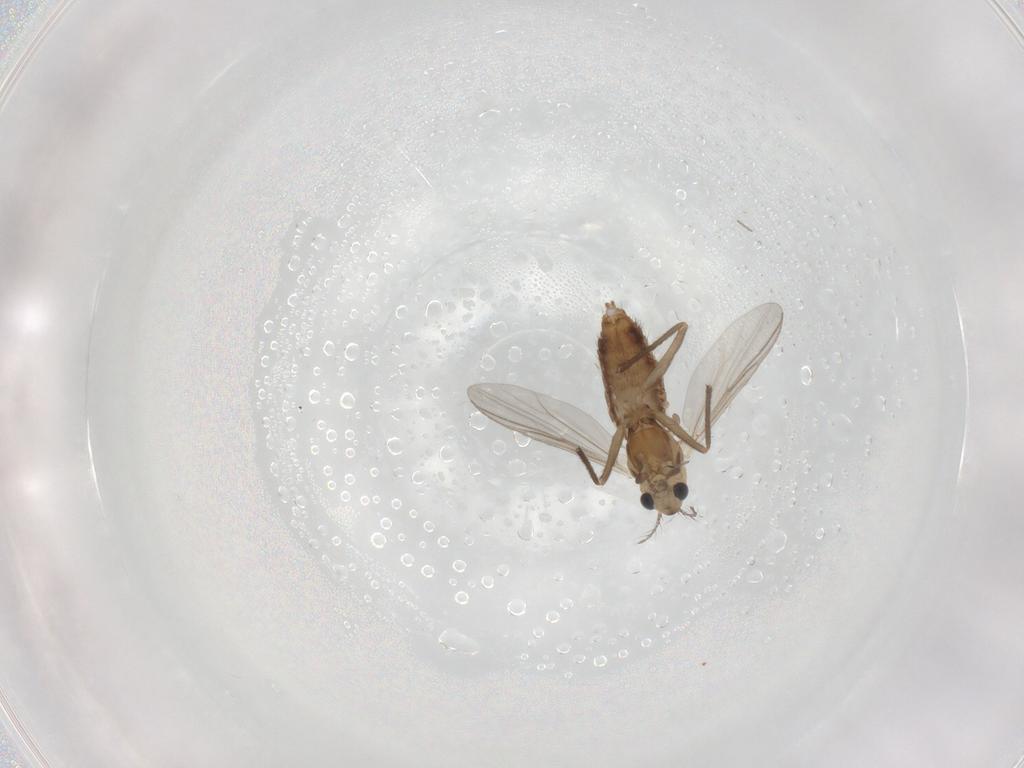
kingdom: Animalia
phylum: Arthropoda
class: Insecta
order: Diptera
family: Chironomidae
